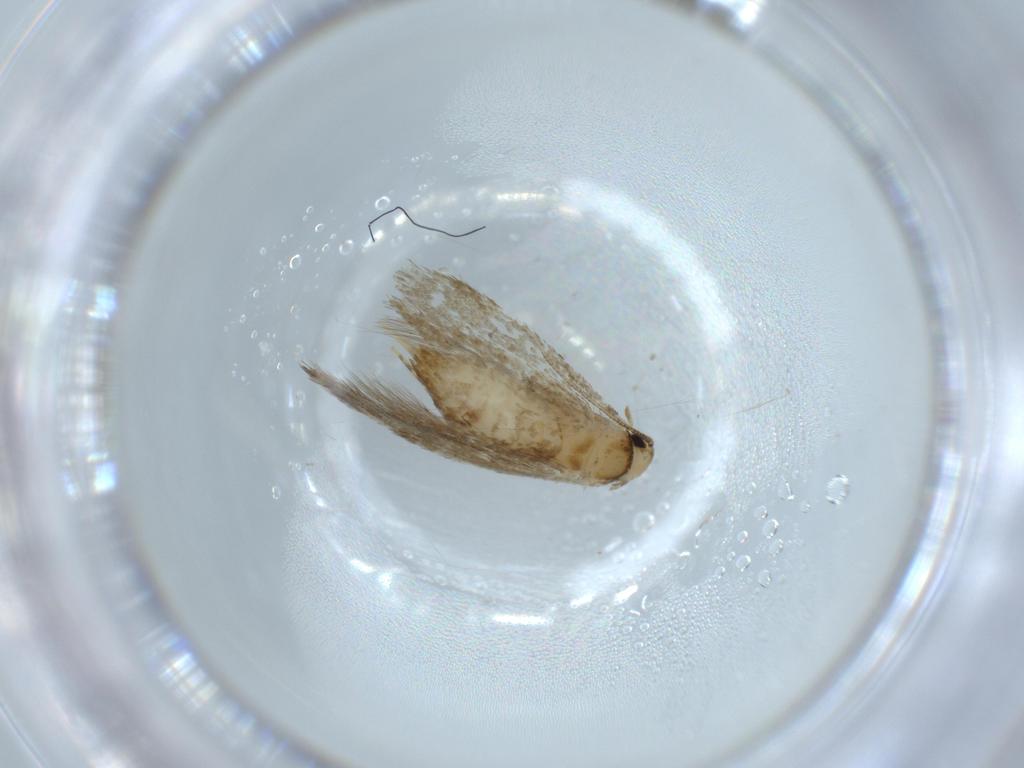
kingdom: Animalia
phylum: Arthropoda
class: Insecta
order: Lepidoptera
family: Tineidae
